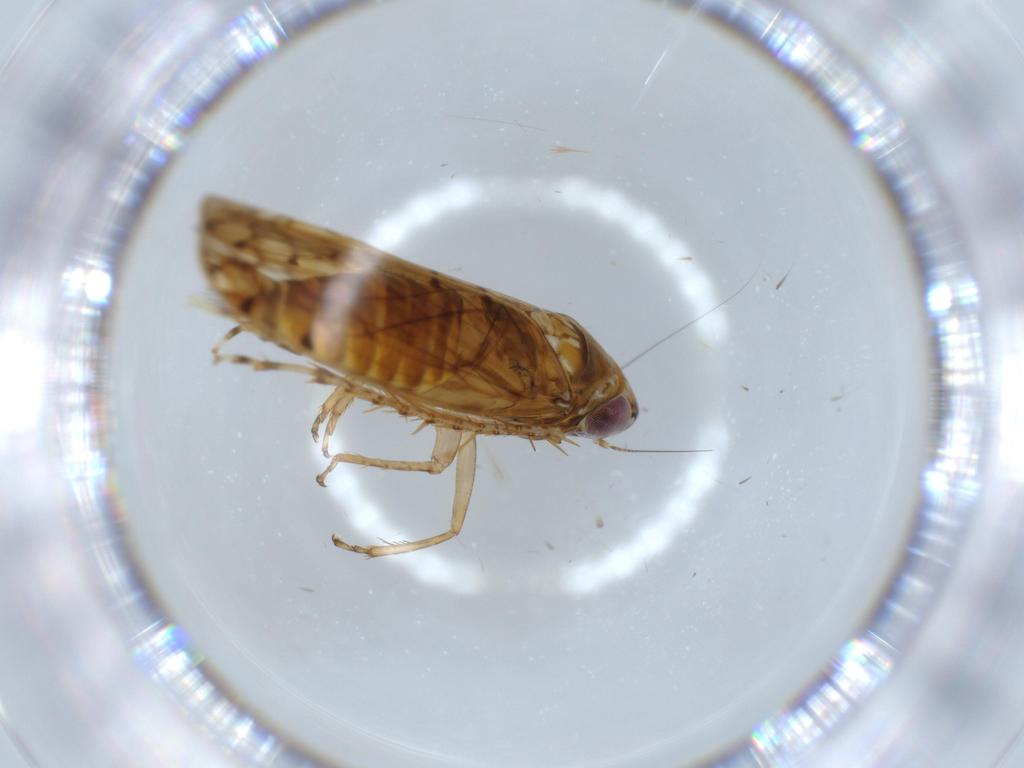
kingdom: Animalia
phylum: Arthropoda
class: Insecta
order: Hemiptera
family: Cicadellidae
